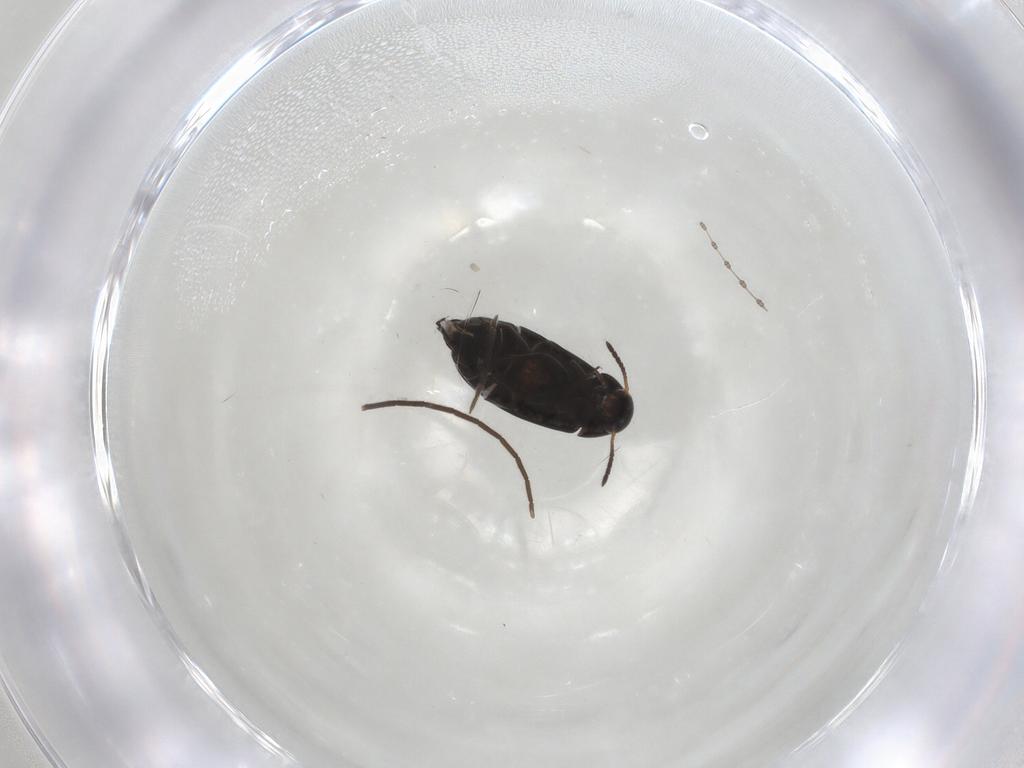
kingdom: Animalia
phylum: Arthropoda
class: Insecta
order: Coleoptera
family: Scraptiidae
